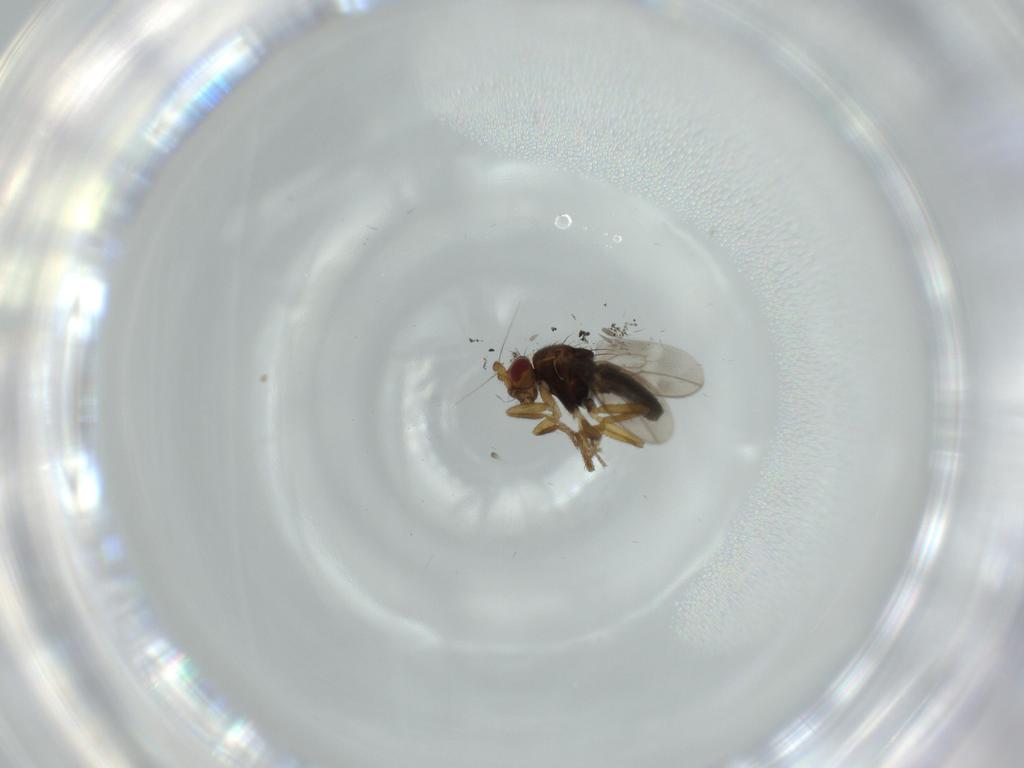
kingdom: Animalia
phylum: Arthropoda
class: Insecta
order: Diptera
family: Sphaeroceridae
